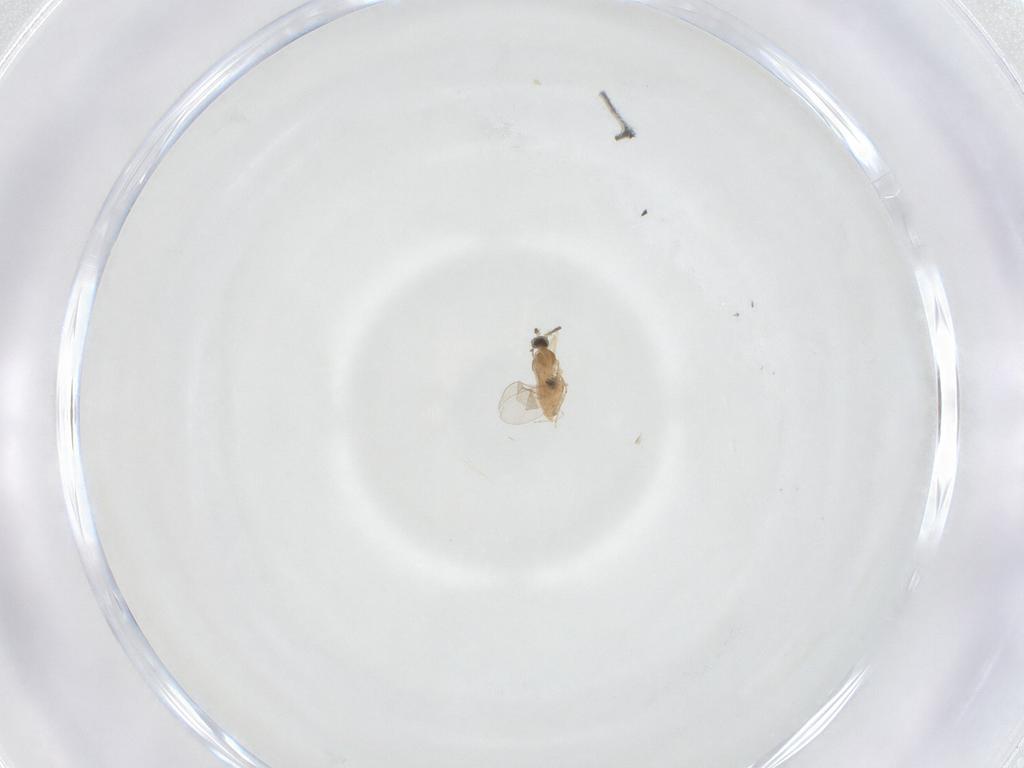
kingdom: Animalia
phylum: Arthropoda
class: Insecta
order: Diptera
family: Cecidomyiidae
